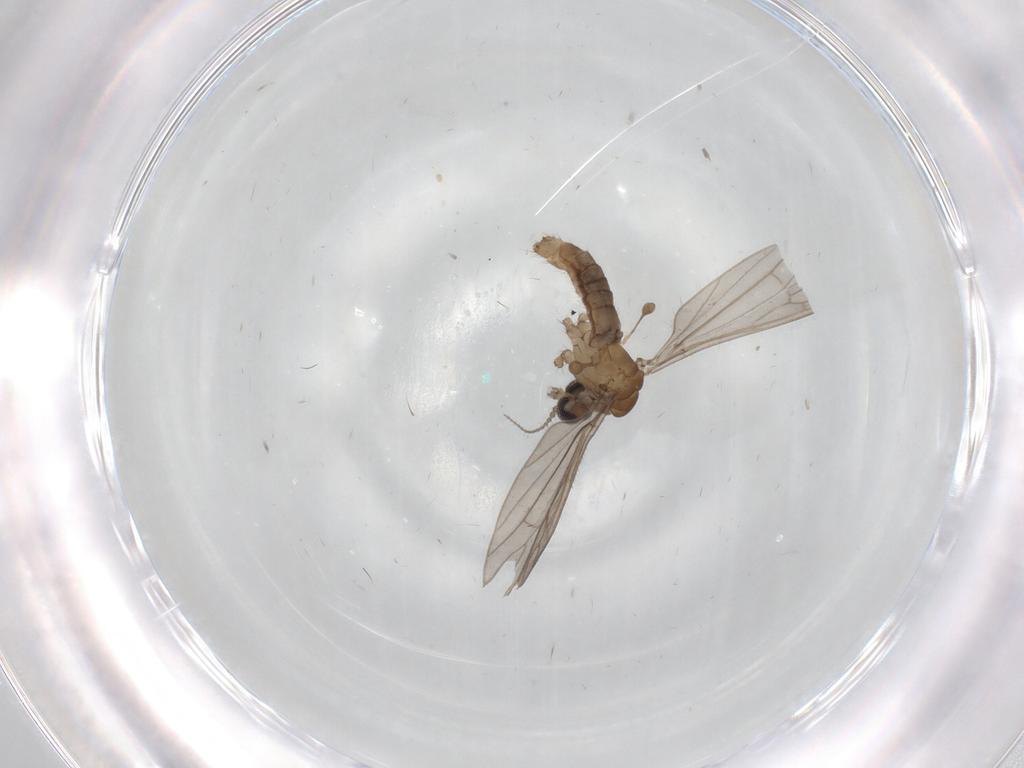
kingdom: Animalia
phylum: Arthropoda
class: Insecta
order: Diptera
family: Limoniidae
